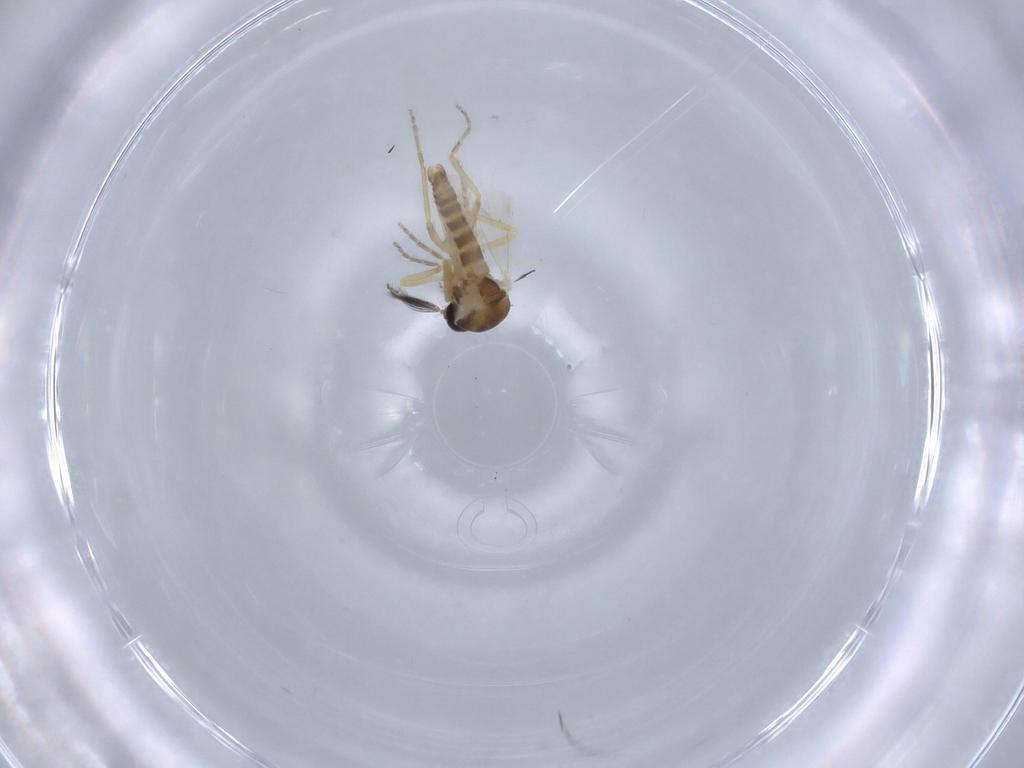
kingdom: Animalia
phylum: Arthropoda
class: Insecta
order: Diptera
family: Ceratopogonidae
